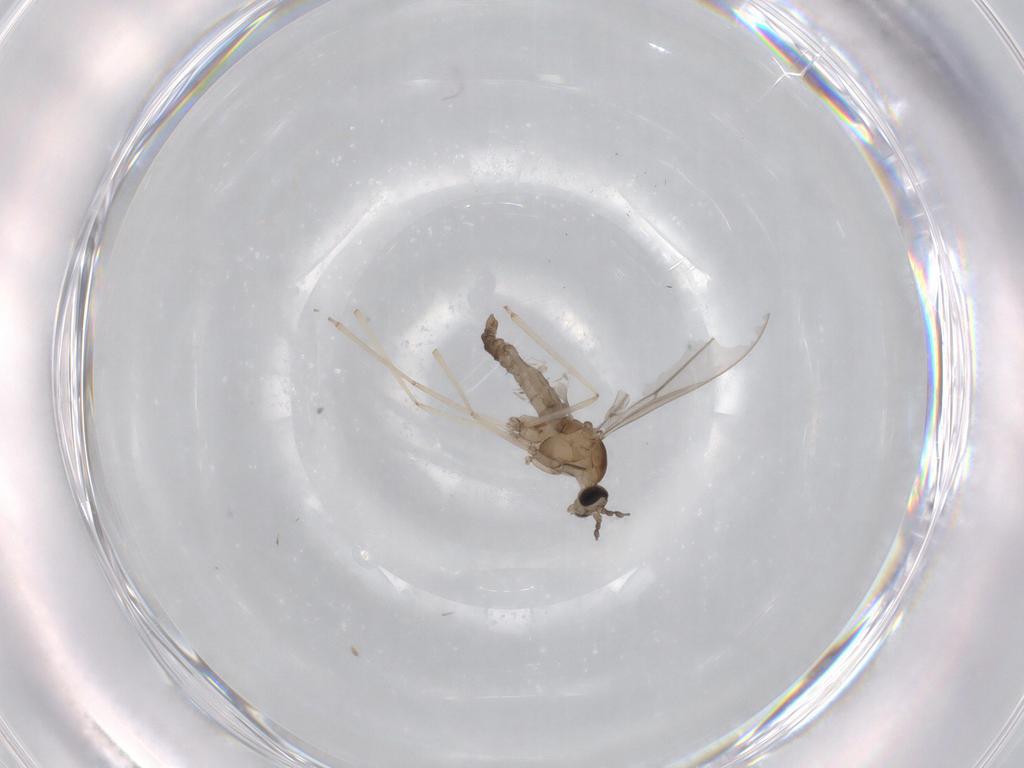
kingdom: Animalia
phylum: Arthropoda
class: Insecta
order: Diptera
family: Cecidomyiidae
